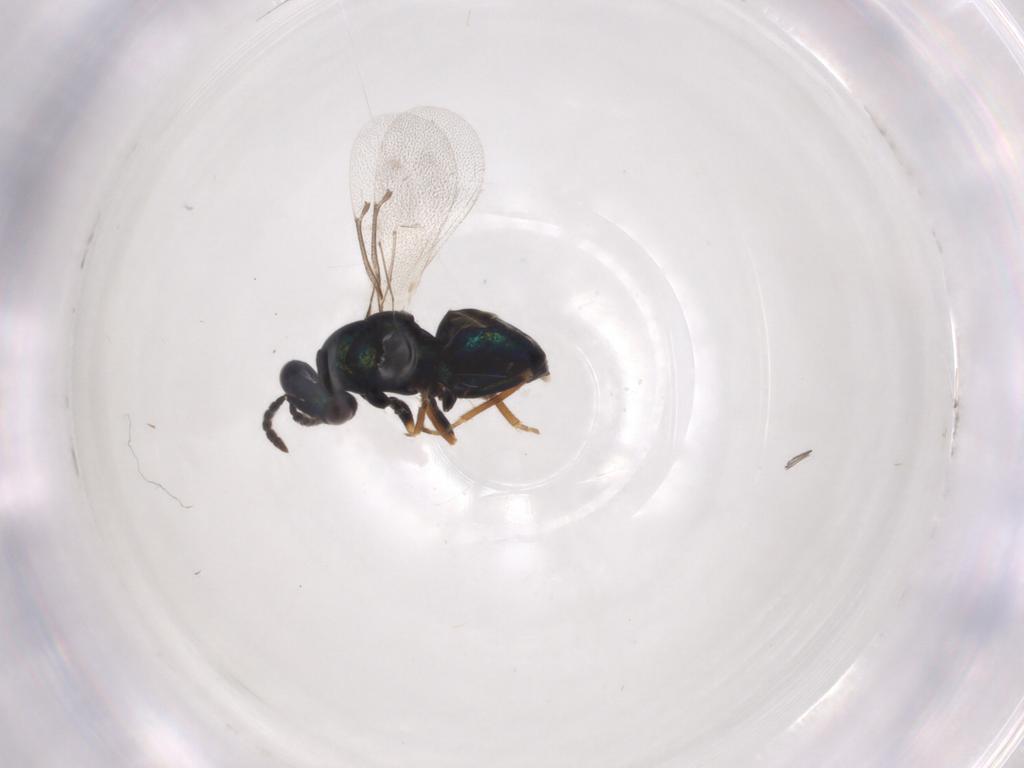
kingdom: Animalia
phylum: Arthropoda
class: Insecta
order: Hymenoptera
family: Eulophidae
